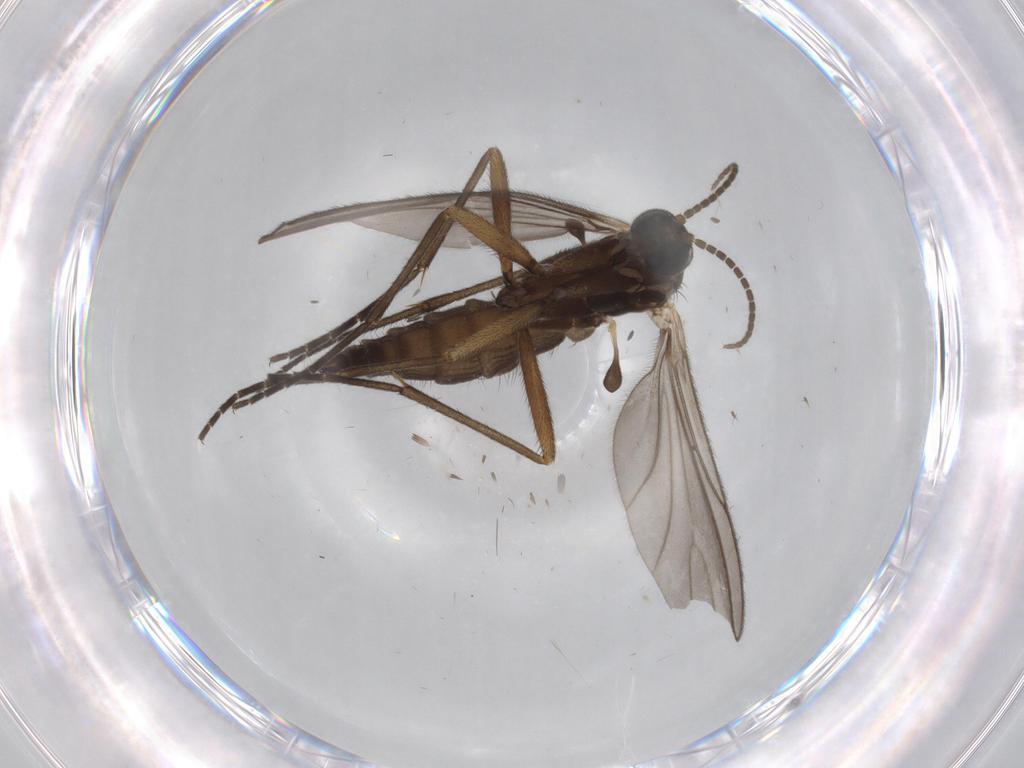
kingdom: Animalia
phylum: Arthropoda
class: Insecta
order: Diptera
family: Sciaridae
